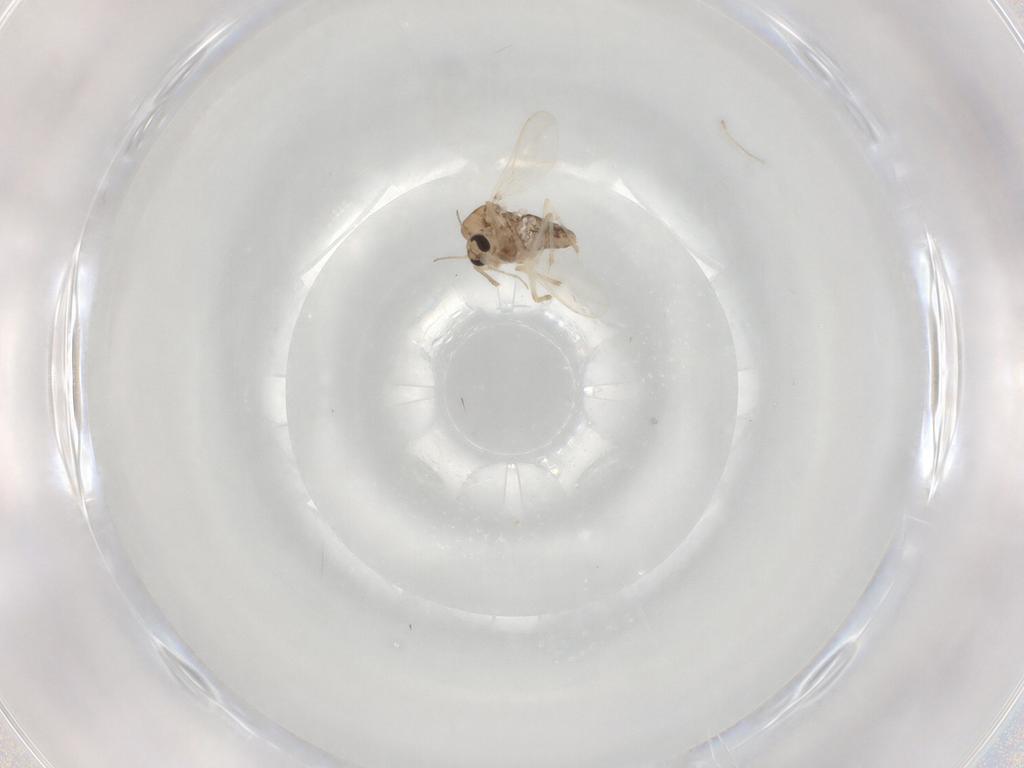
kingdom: Animalia
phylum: Arthropoda
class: Insecta
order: Diptera
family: Chironomidae
